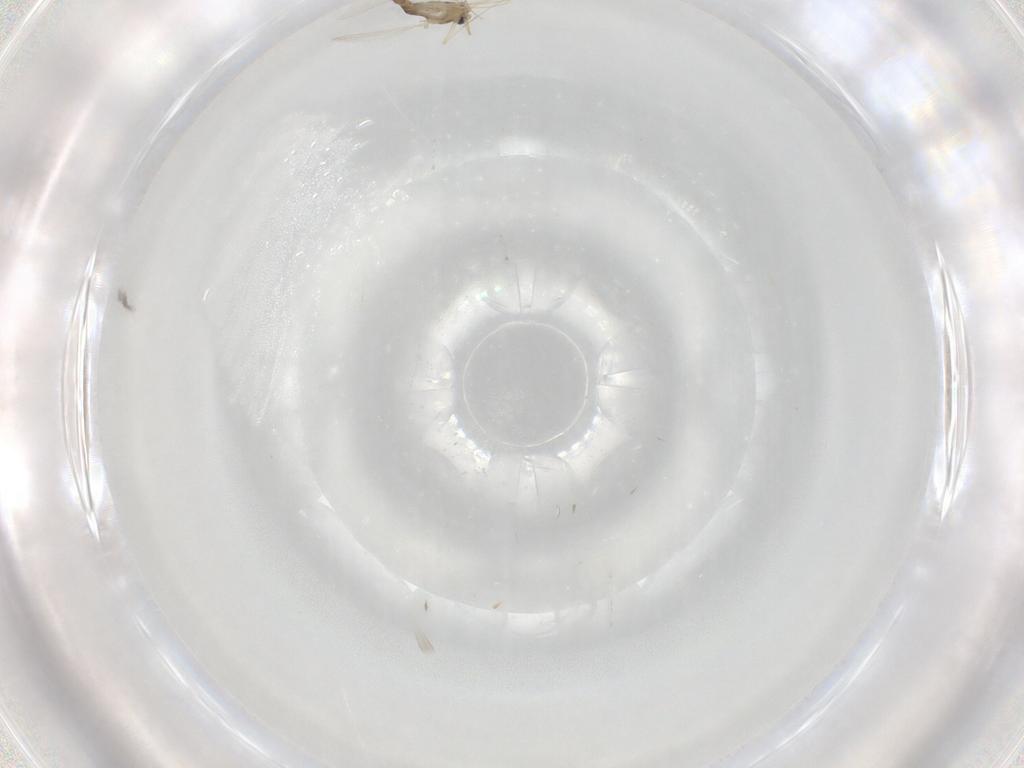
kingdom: Animalia
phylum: Arthropoda
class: Insecta
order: Diptera
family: Chironomidae
